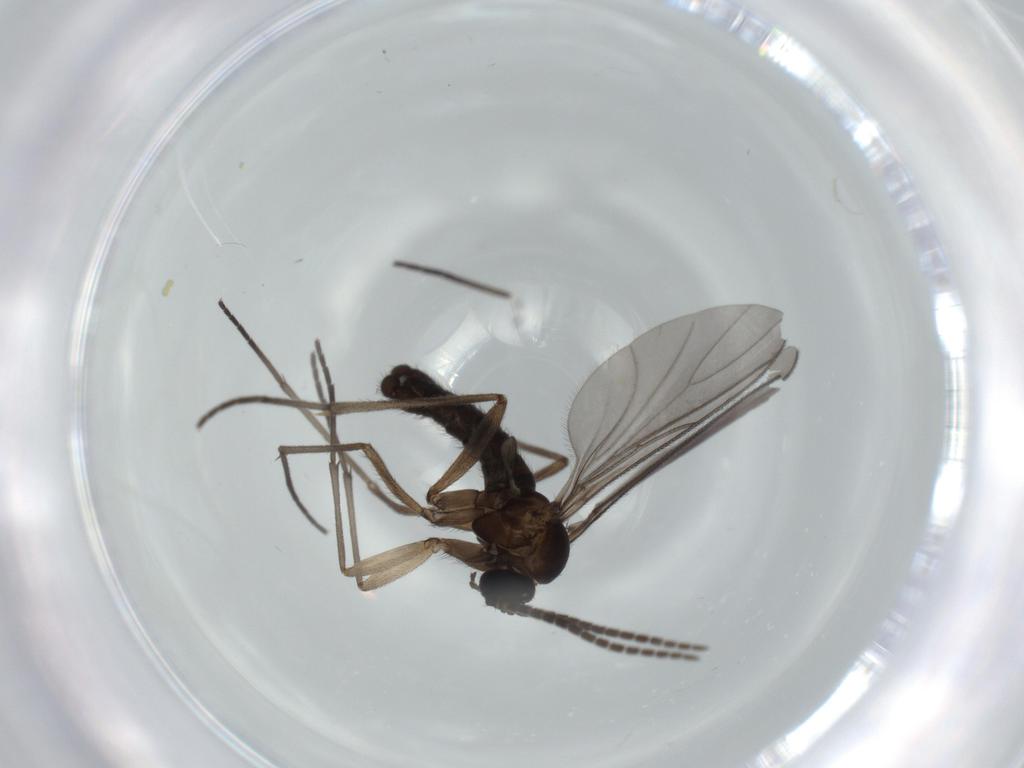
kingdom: Animalia
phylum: Arthropoda
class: Insecta
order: Diptera
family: Sciaridae
